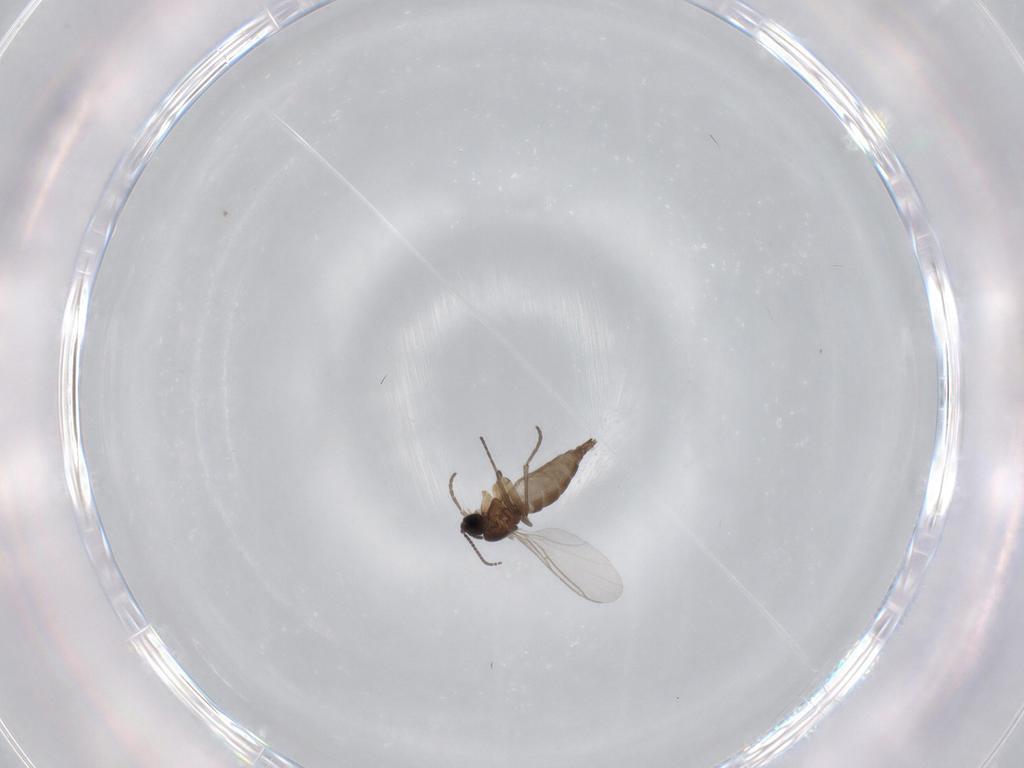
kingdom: Animalia
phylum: Arthropoda
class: Insecta
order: Diptera
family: Sciaridae
